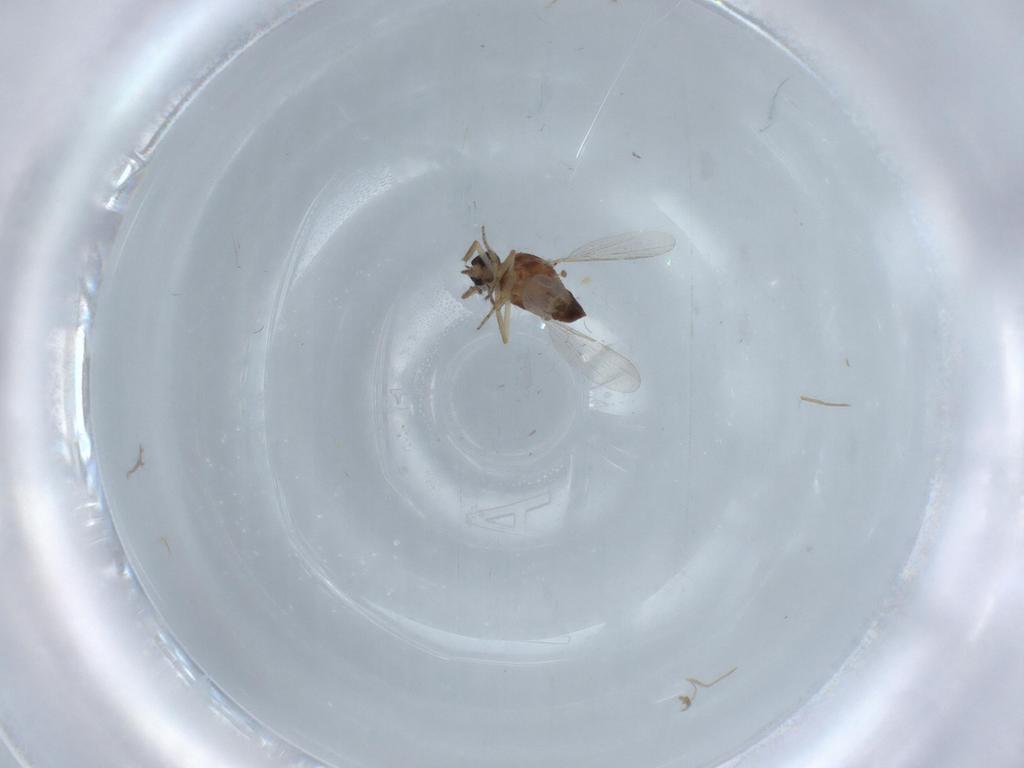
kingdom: Animalia
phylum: Arthropoda
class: Insecta
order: Diptera
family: Ceratopogonidae
